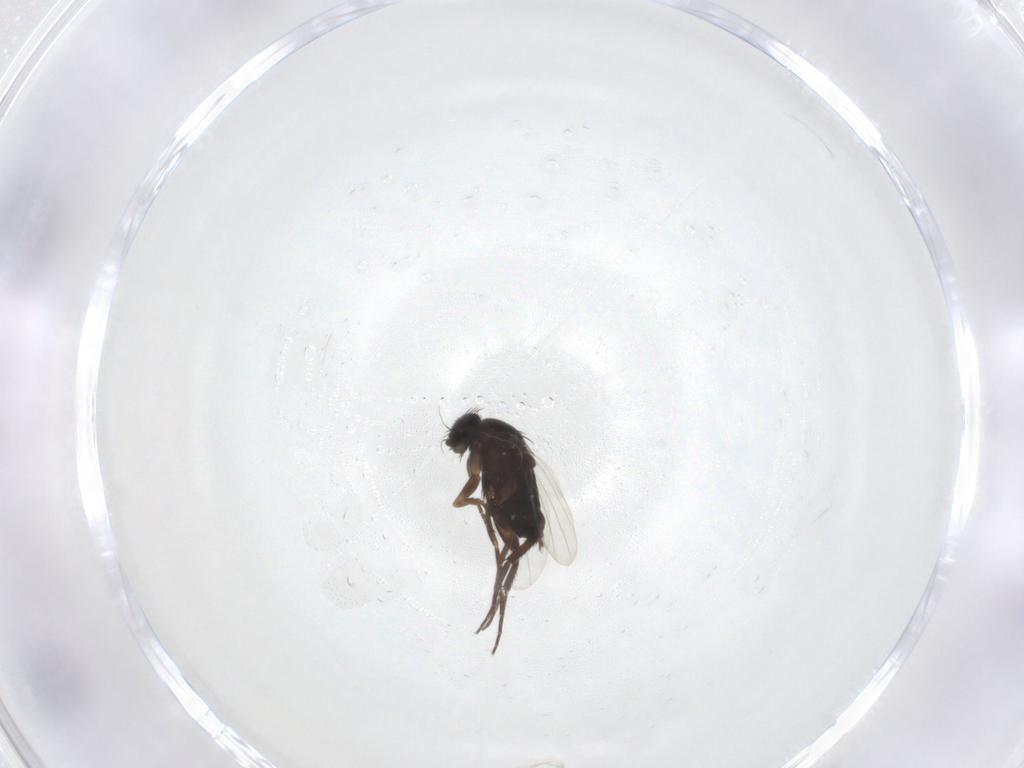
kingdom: Animalia
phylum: Arthropoda
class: Insecta
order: Diptera
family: Phoridae
